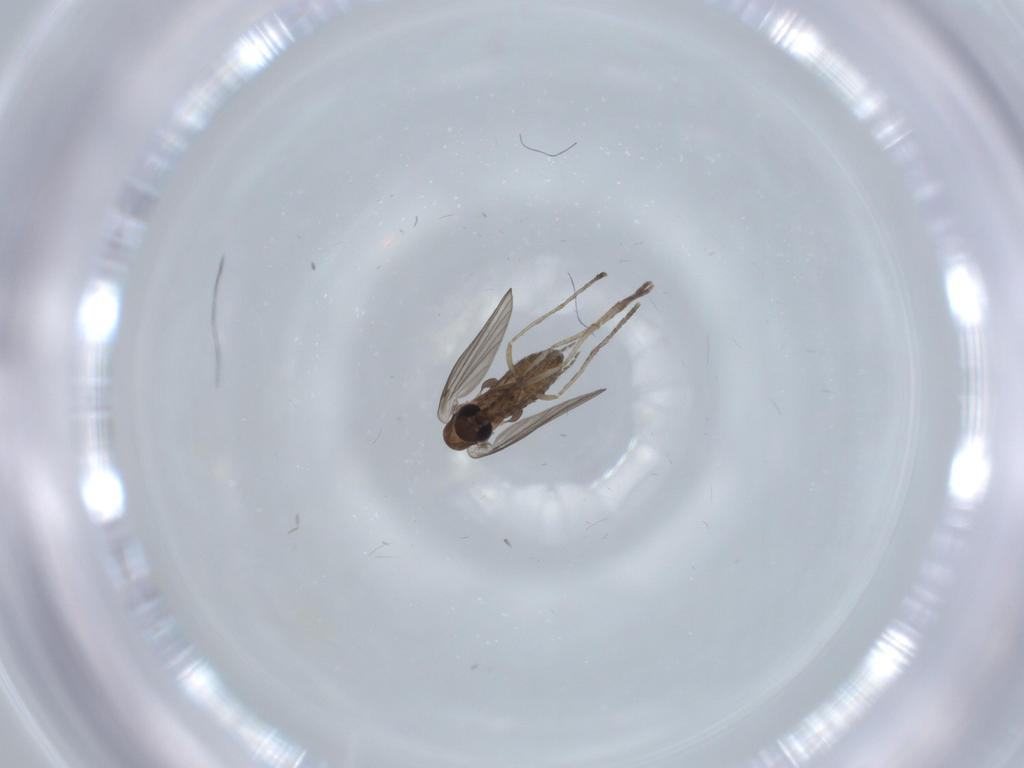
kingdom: Animalia
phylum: Arthropoda
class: Insecta
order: Diptera
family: Psychodidae
